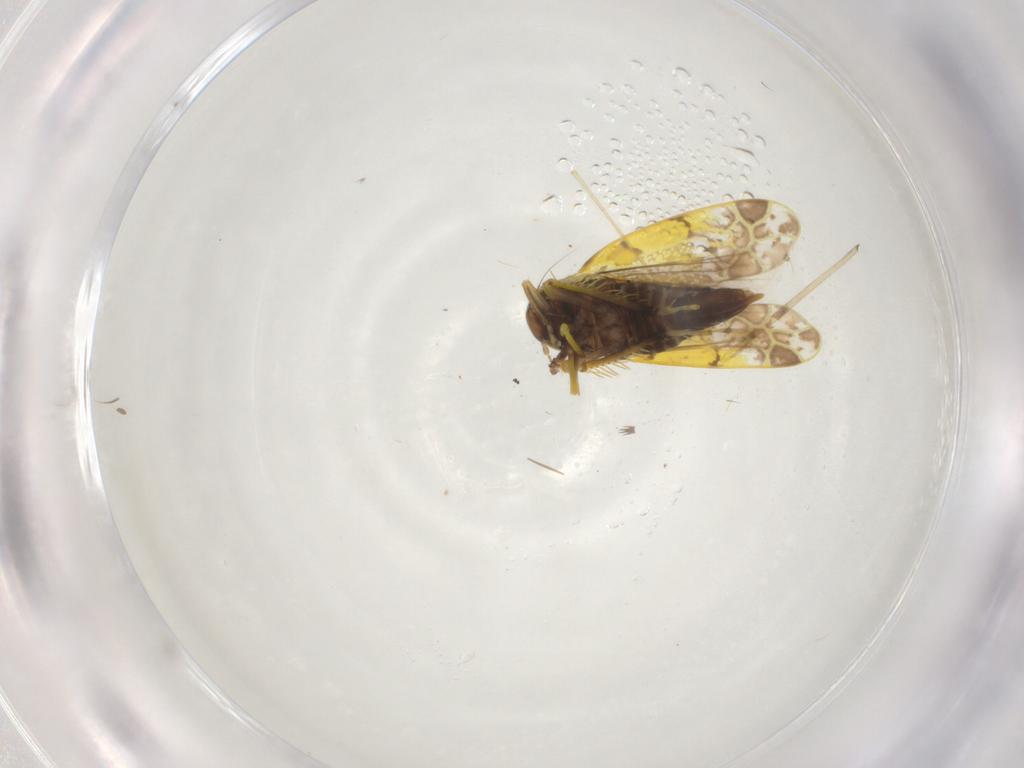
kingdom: Animalia
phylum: Arthropoda
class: Insecta
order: Hemiptera
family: Cicadellidae
